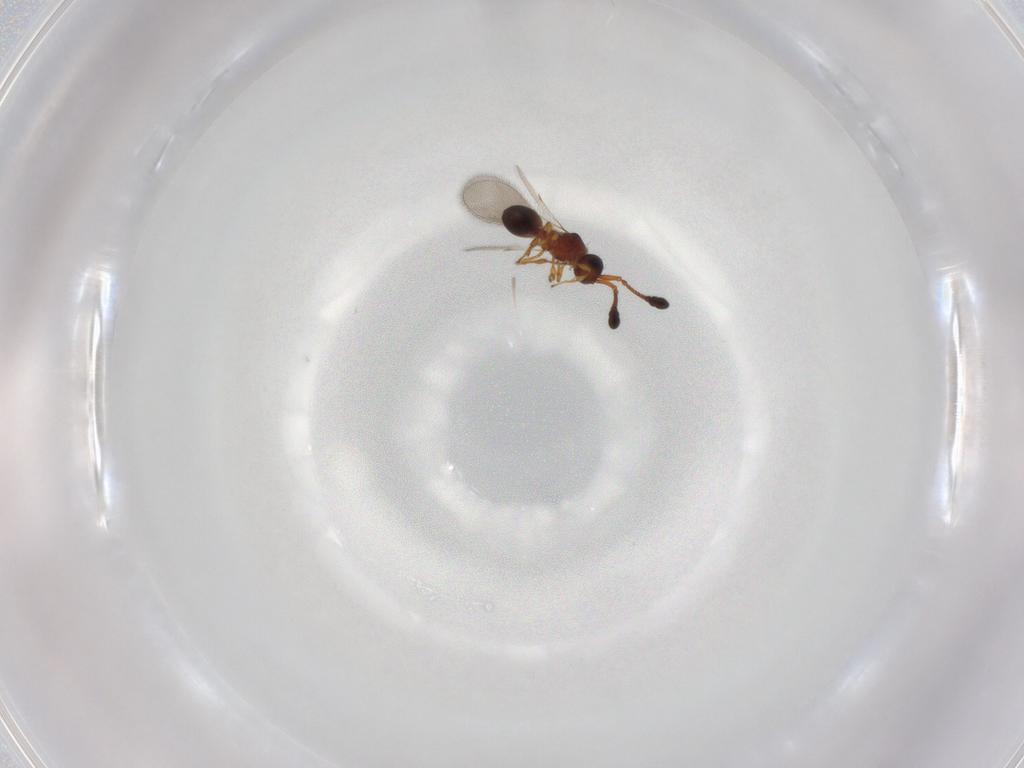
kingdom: Animalia
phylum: Arthropoda
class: Insecta
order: Hymenoptera
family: Diapriidae
